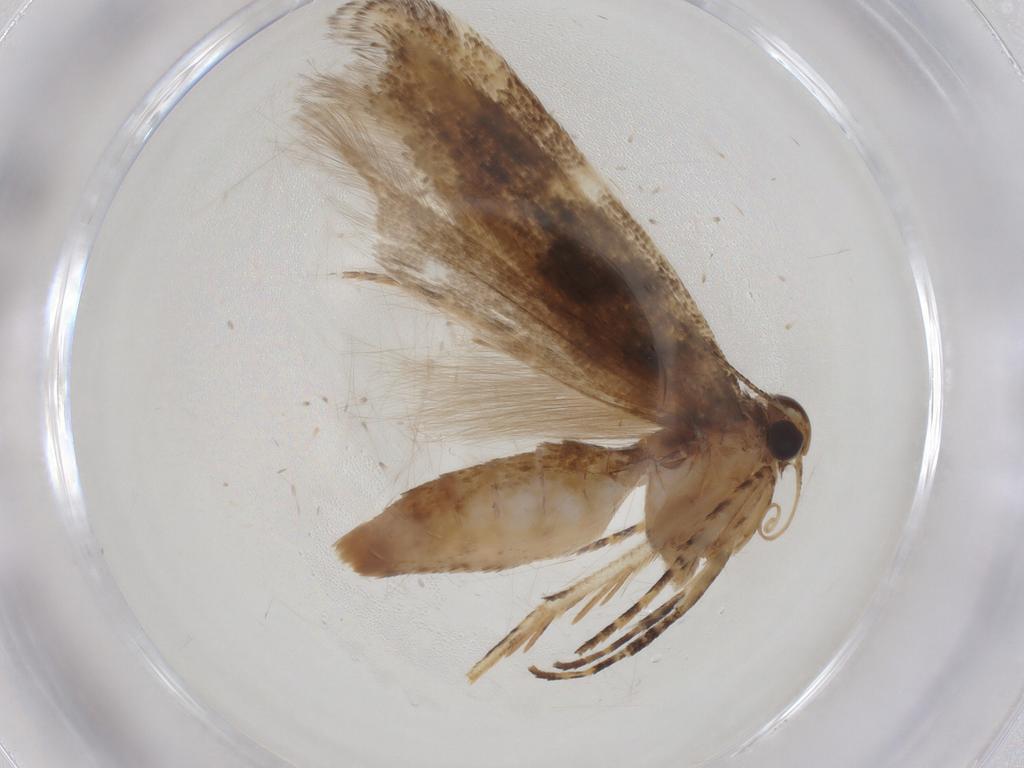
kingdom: Animalia
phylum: Arthropoda
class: Insecta
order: Lepidoptera
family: Gelechiidae
